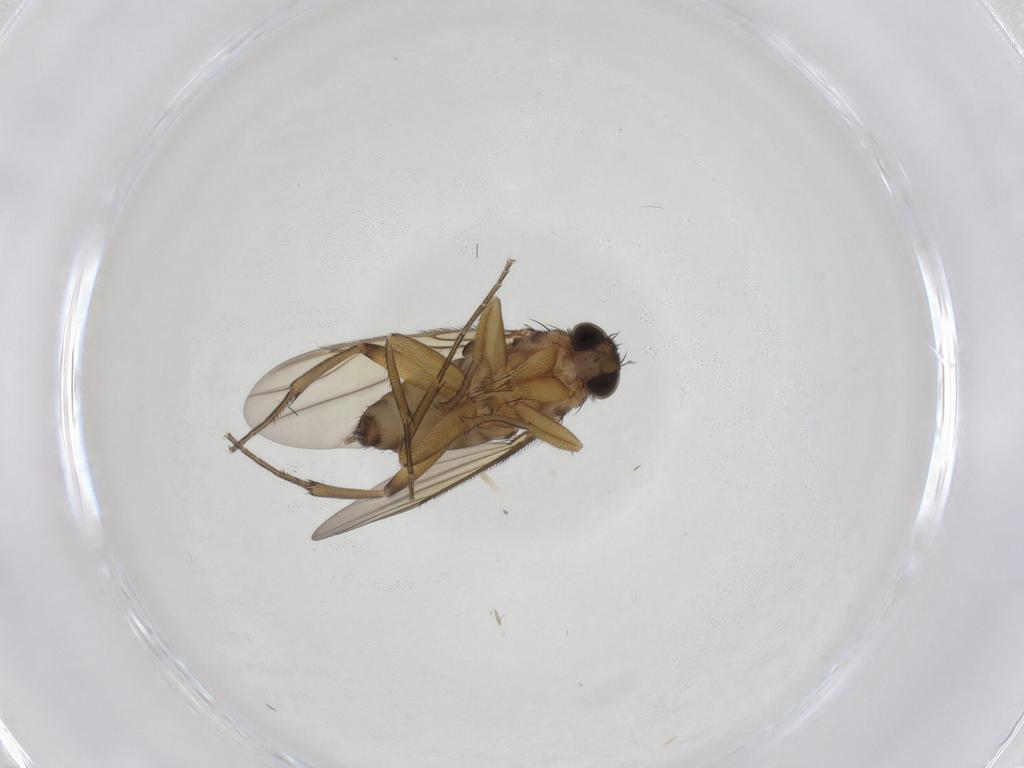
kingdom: Animalia
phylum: Arthropoda
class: Insecta
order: Diptera
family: Phoridae
